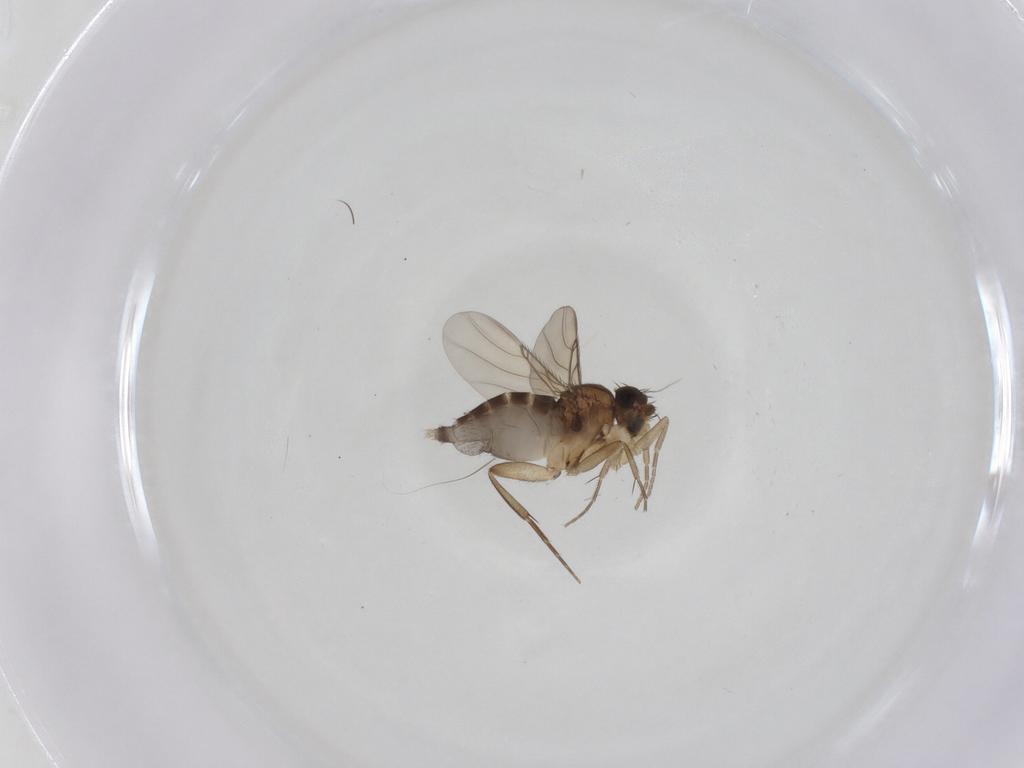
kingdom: Animalia
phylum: Arthropoda
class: Insecta
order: Diptera
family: Phoridae
